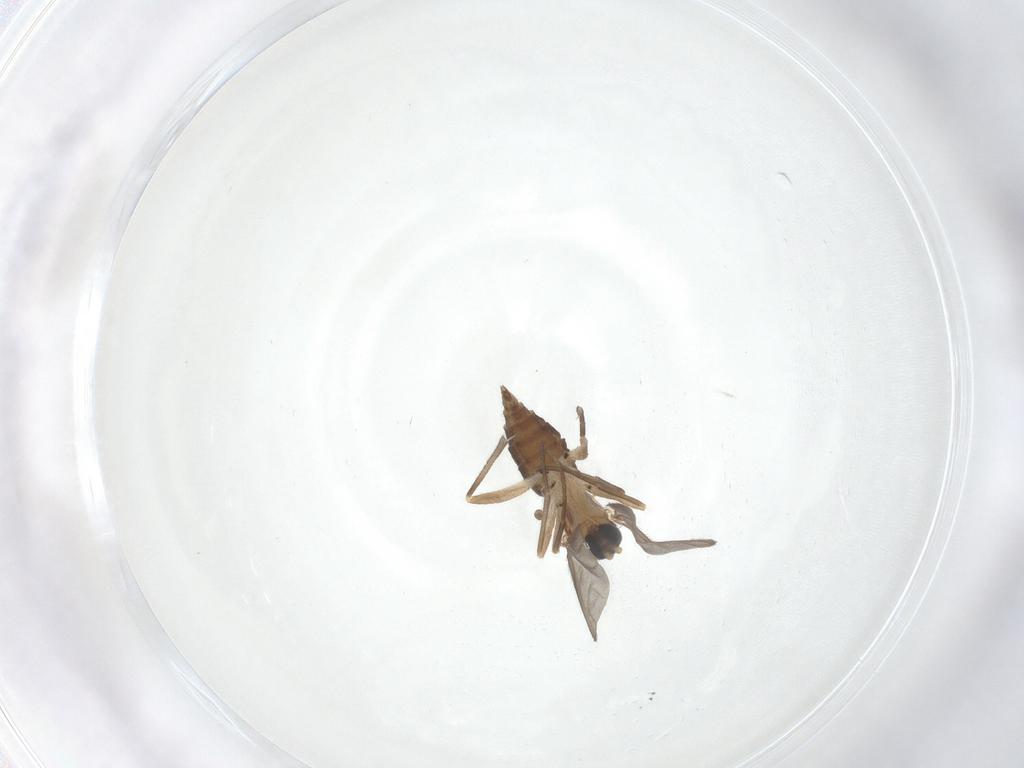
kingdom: Animalia
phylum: Arthropoda
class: Insecta
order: Diptera
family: Sciaridae
